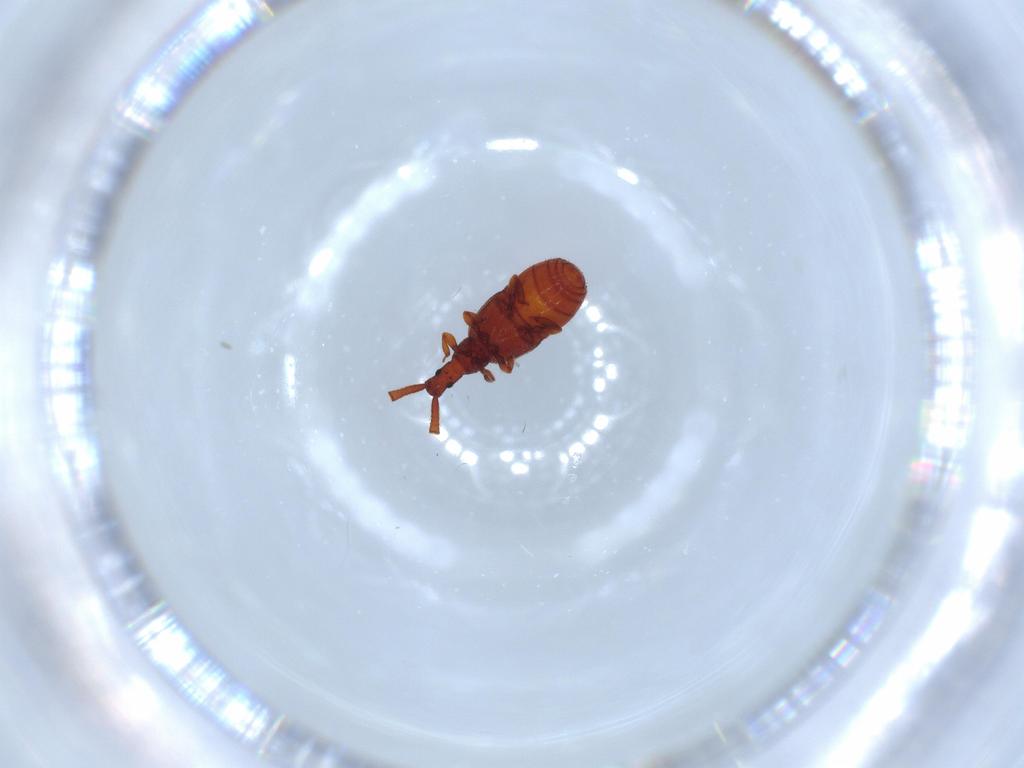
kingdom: Animalia
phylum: Arthropoda
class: Insecta
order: Coleoptera
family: Staphylinidae
